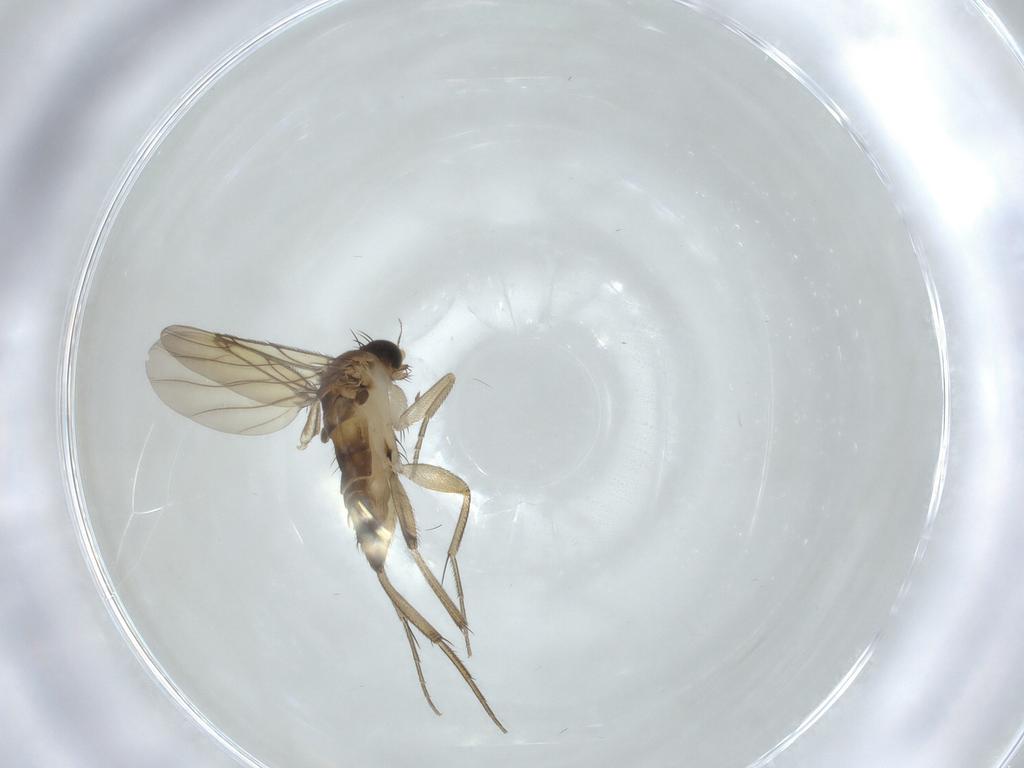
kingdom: Animalia
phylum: Arthropoda
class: Insecta
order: Diptera
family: Phoridae
